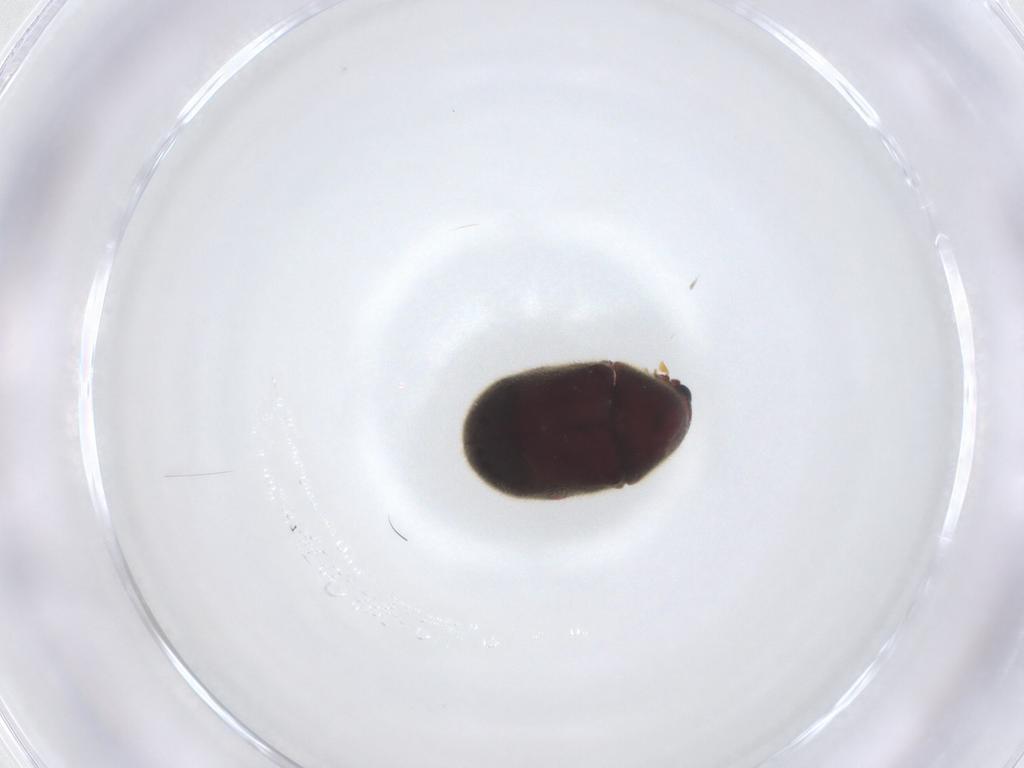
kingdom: Animalia
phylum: Arthropoda
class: Insecta
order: Coleoptera
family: Ptinidae
